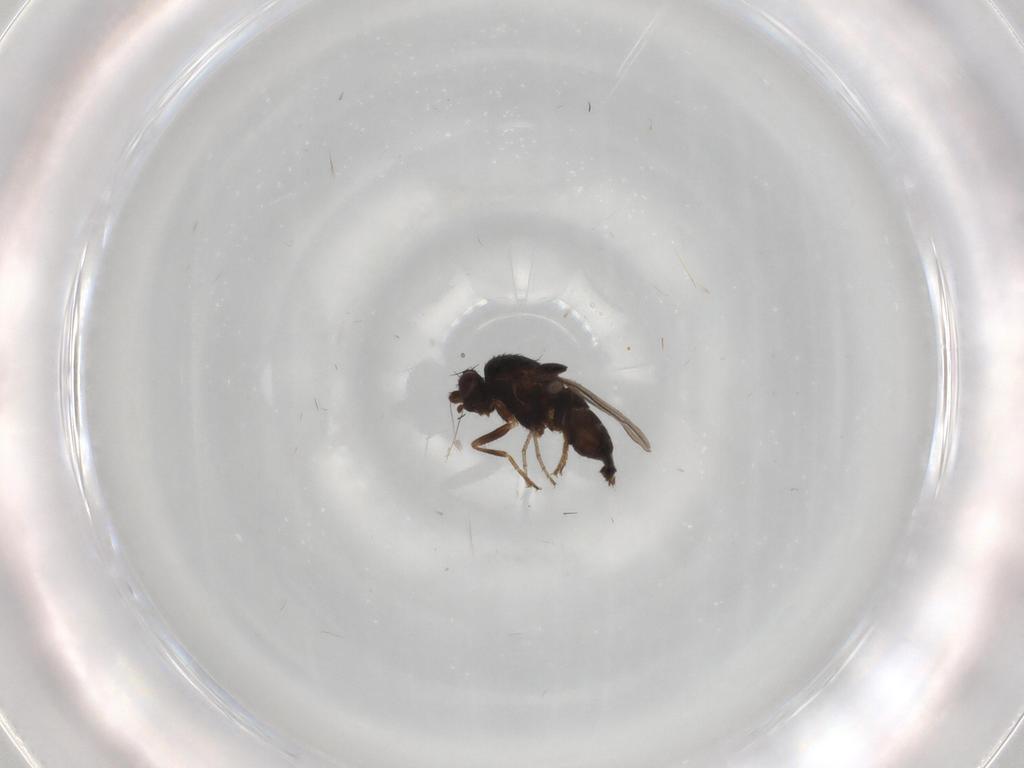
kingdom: Animalia
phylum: Arthropoda
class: Insecta
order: Diptera
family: Sphaeroceridae
